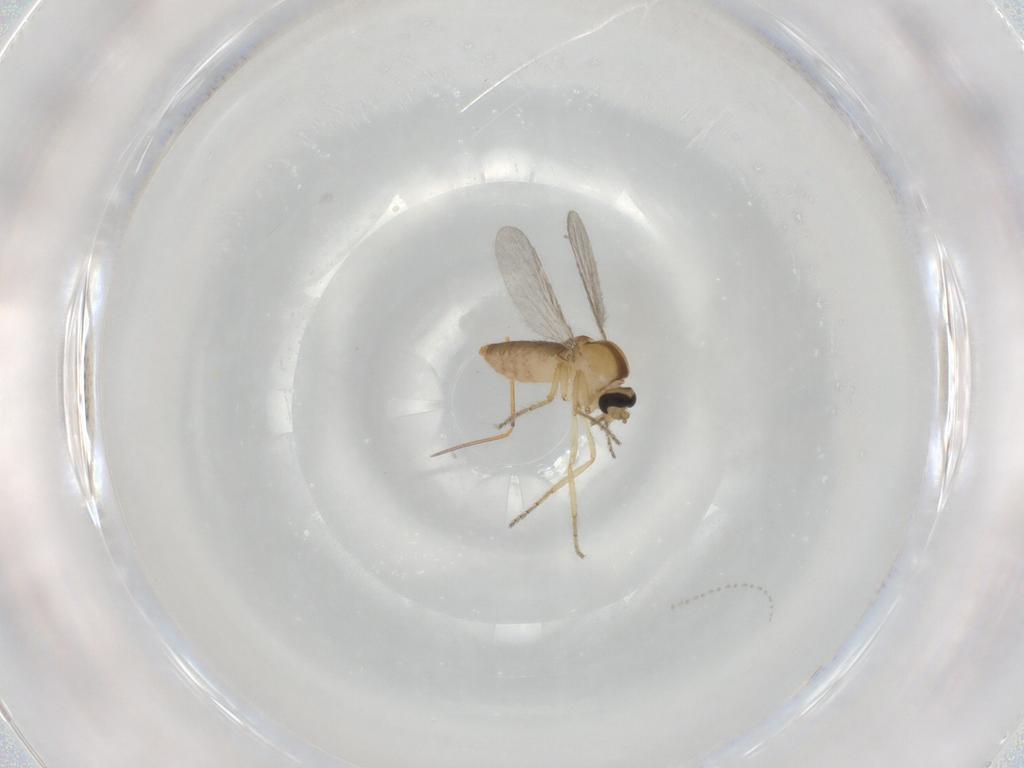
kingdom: Animalia
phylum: Arthropoda
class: Insecta
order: Diptera
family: Ceratopogonidae
